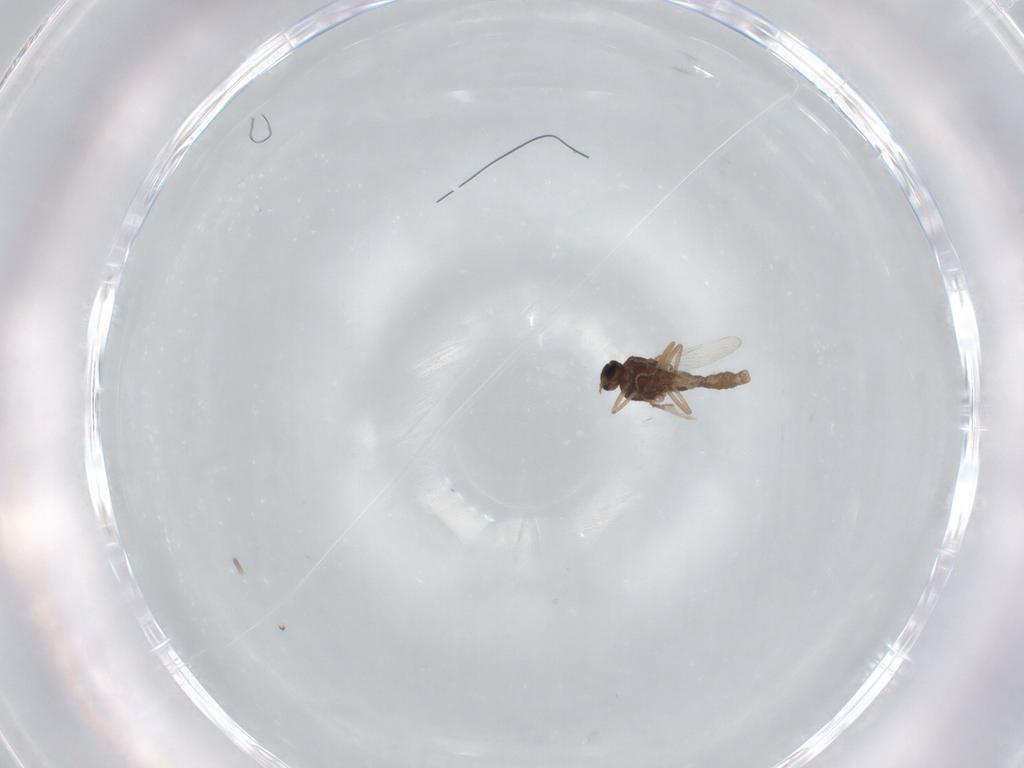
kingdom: Animalia
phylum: Arthropoda
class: Insecta
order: Diptera
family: Ceratopogonidae
